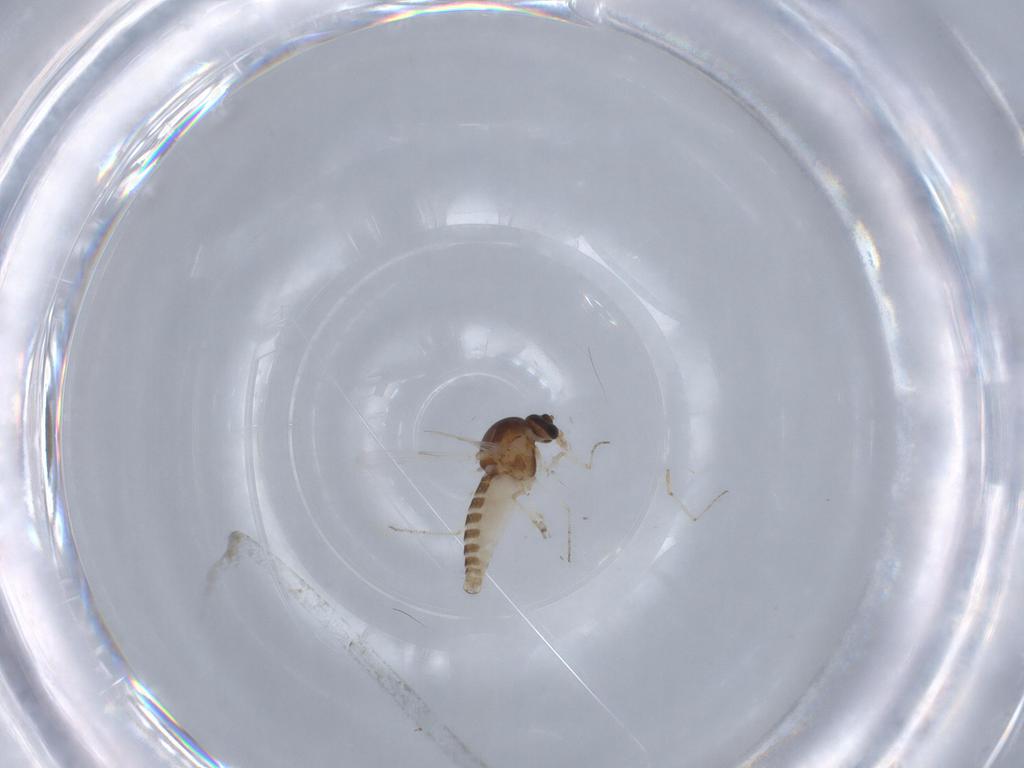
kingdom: Animalia
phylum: Arthropoda
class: Insecta
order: Diptera
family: Ceratopogonidae
